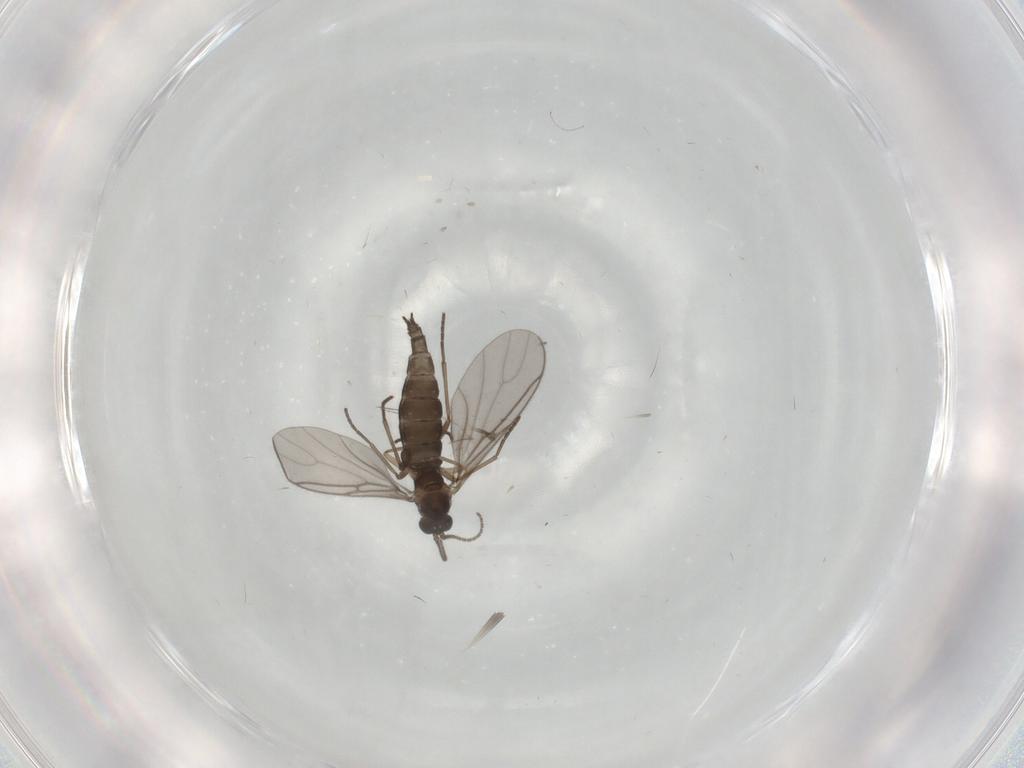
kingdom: Animalia
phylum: Arthropoda
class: Insecta
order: Diptera
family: Sciaridae
